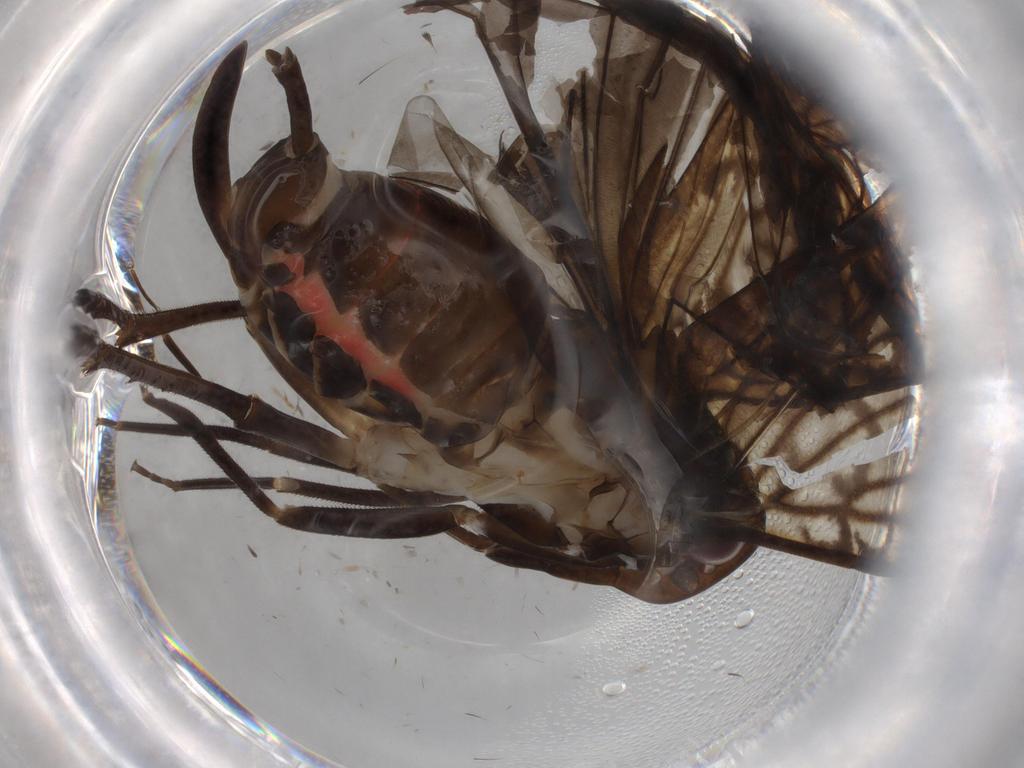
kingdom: Animalia
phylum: Arthropoda
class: Insecta
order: Hemiptera
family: Cixiidae
